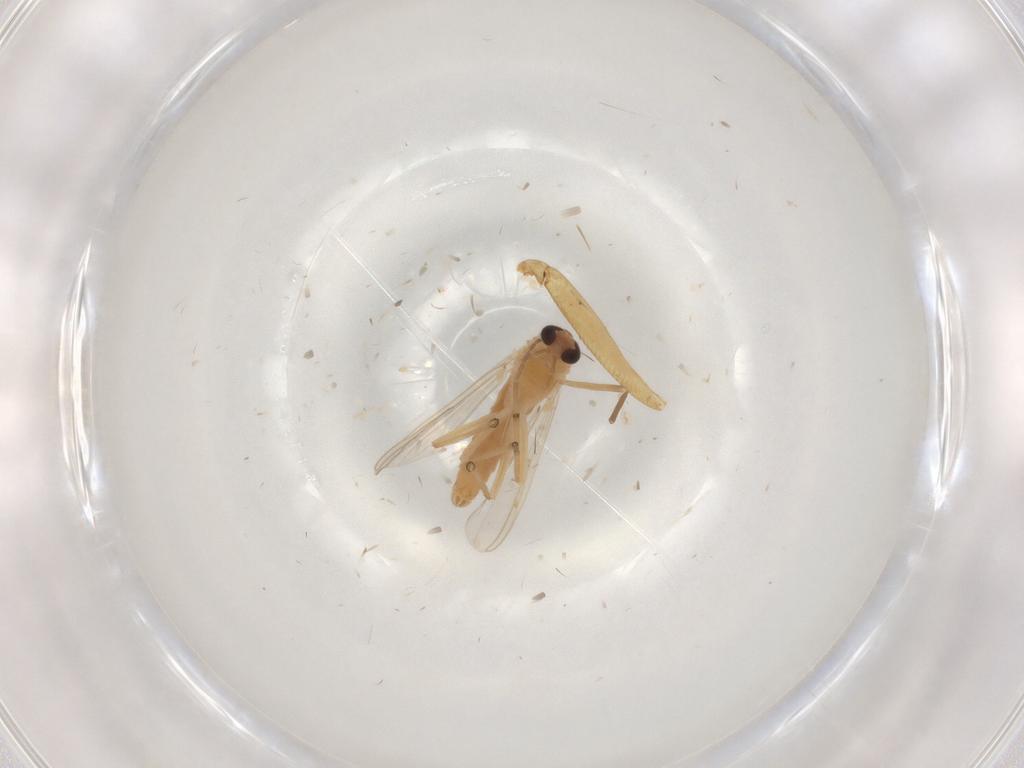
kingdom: Animalia
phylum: Arthropoda
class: Insecta
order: Diptera
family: Chironomidae
